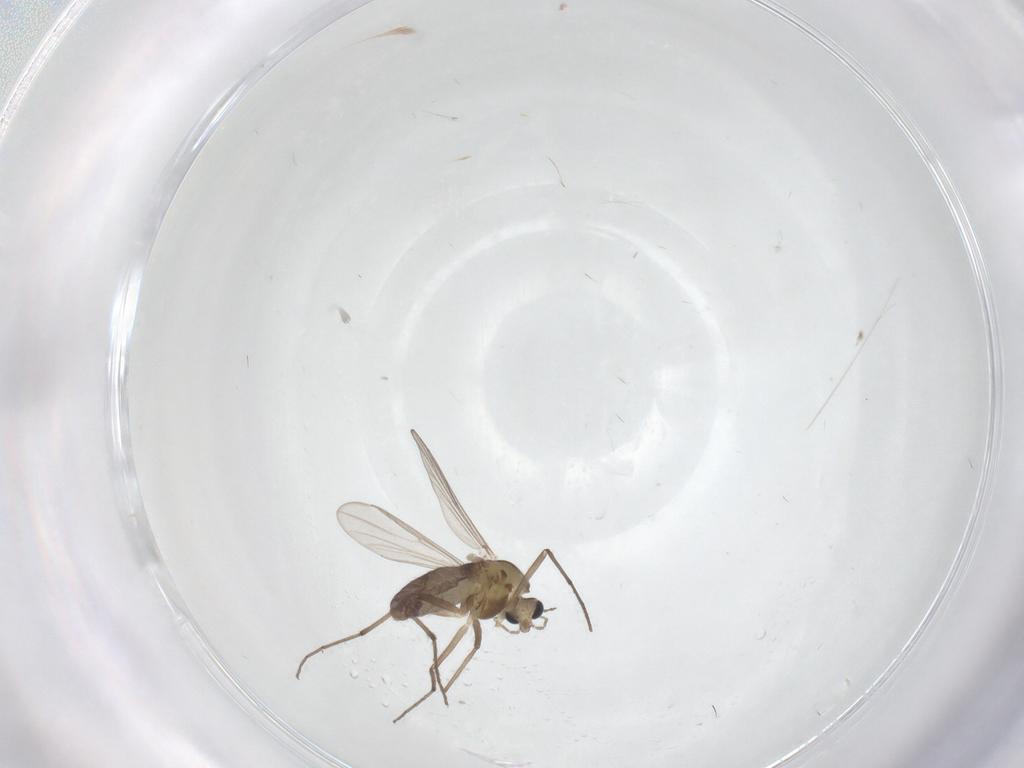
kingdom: Animalia
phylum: Arthropoda
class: Insecta
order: Diptera
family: Chironomidae
